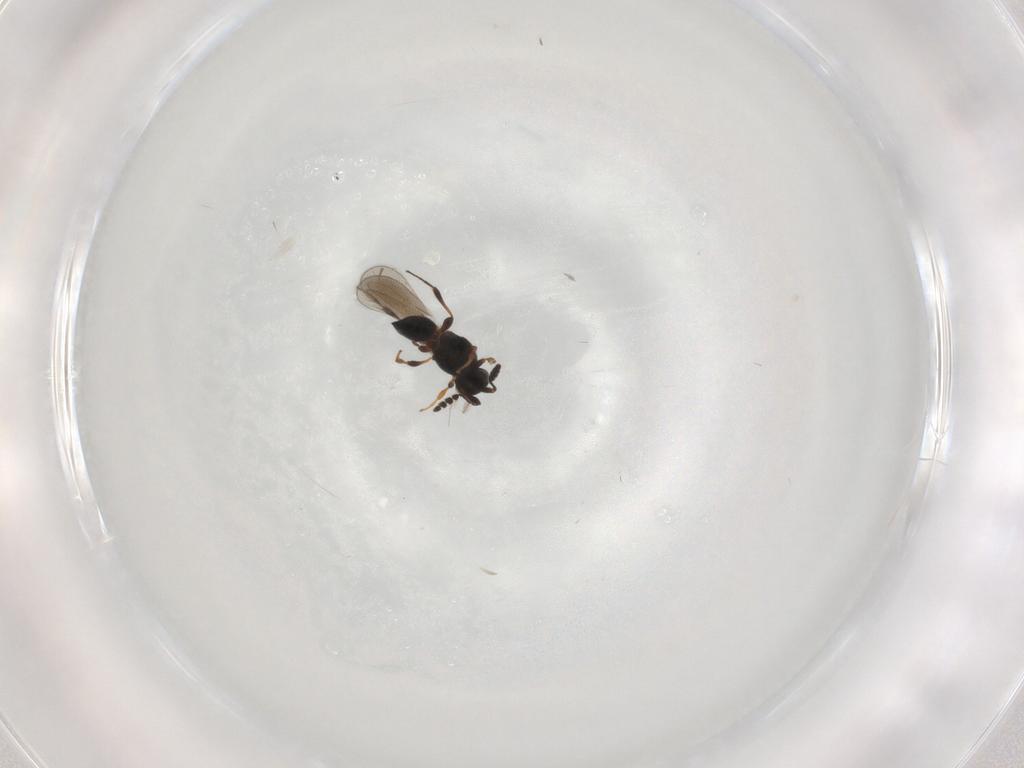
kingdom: Animalia
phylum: Arthropoda
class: Insecta
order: Hymenoptera
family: Platygastridae
